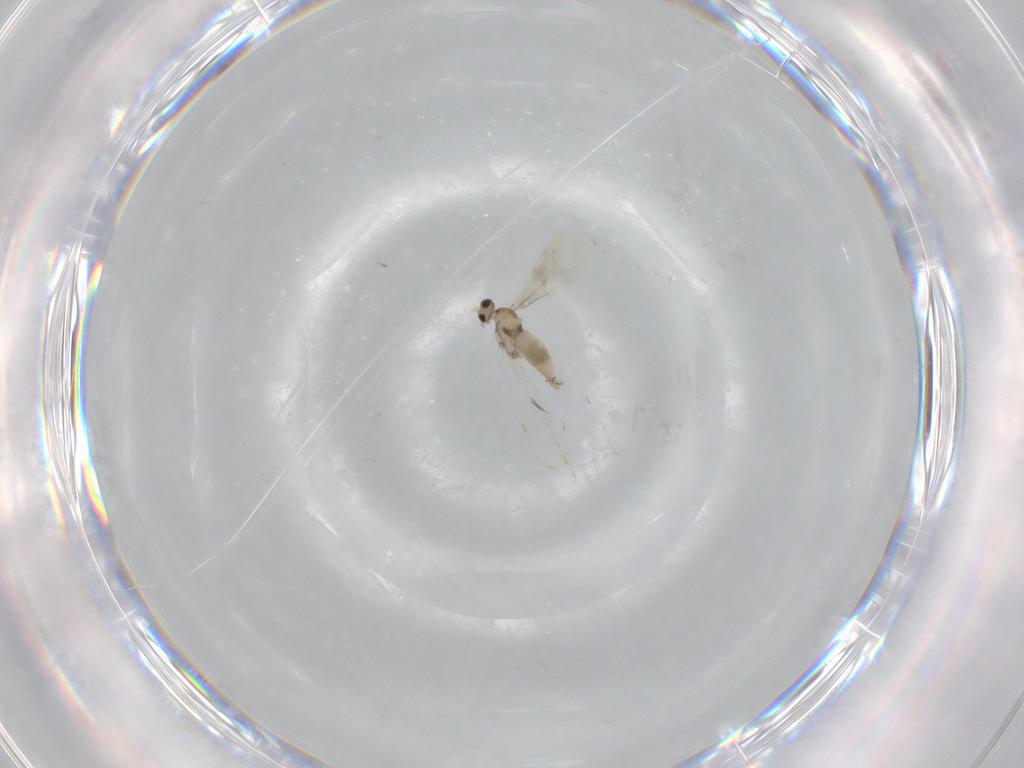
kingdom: Animalia
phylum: Arthropoda
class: Insecta
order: Diptera
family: Cecidomyiidae
